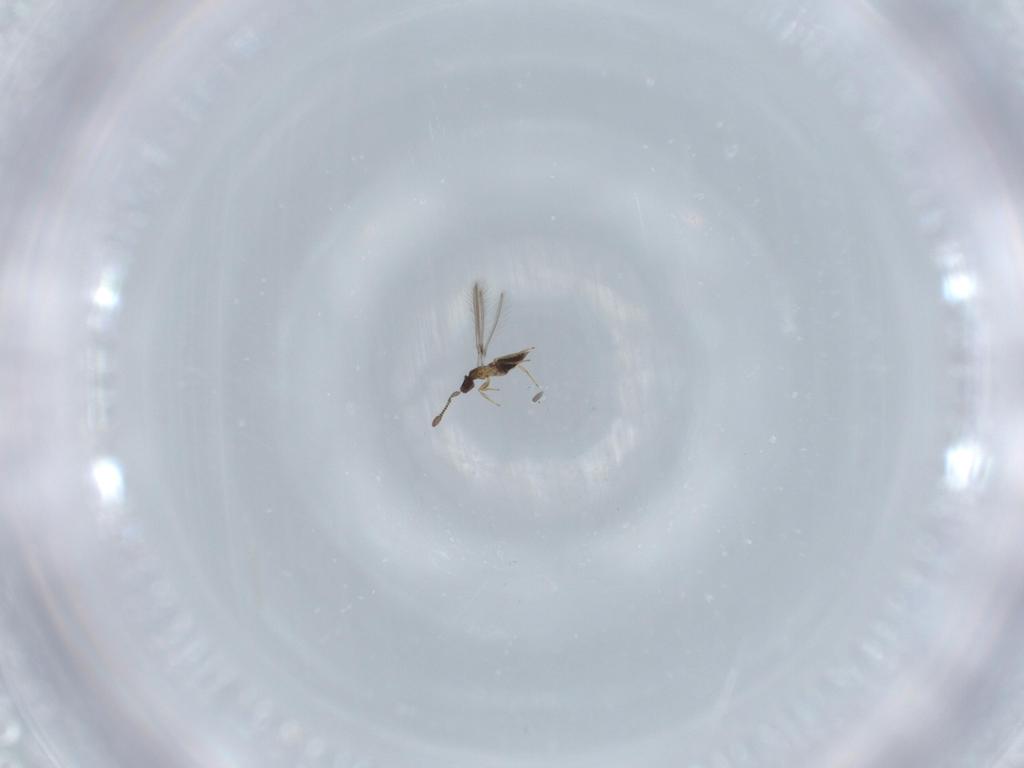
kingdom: Animalia
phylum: Arthropoda
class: Insecta
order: Hymenoptera
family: Mymaridae
